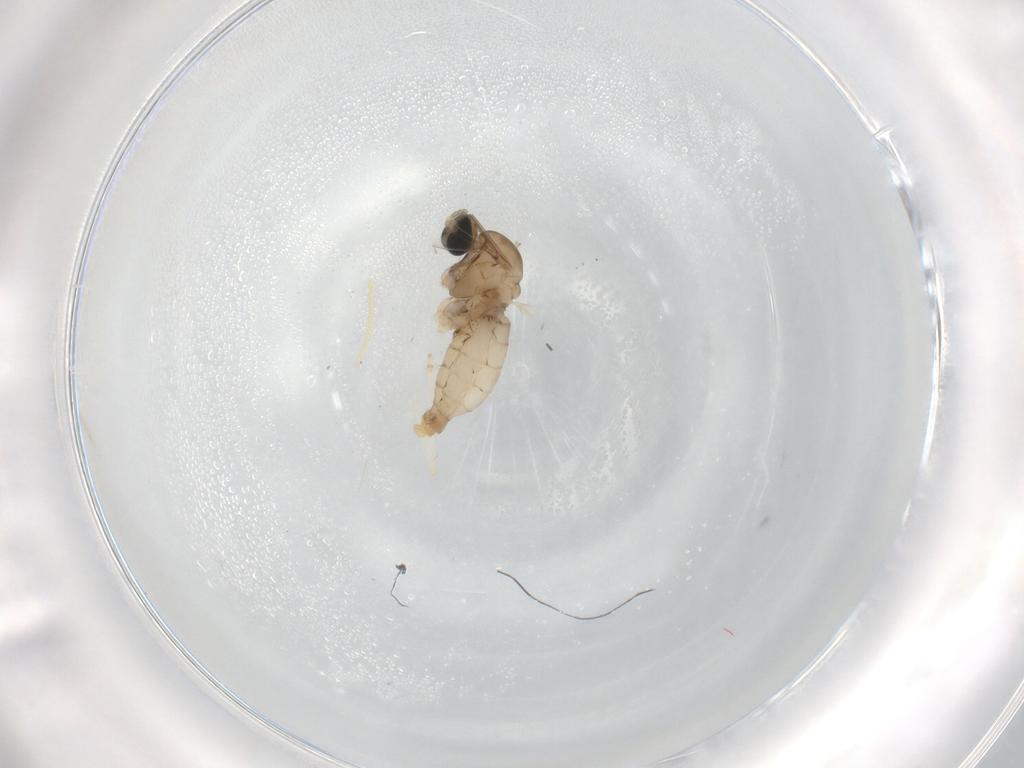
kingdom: Animalia
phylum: Arthropoda
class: Insecta
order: Diptera
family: Cecidomyiidae
